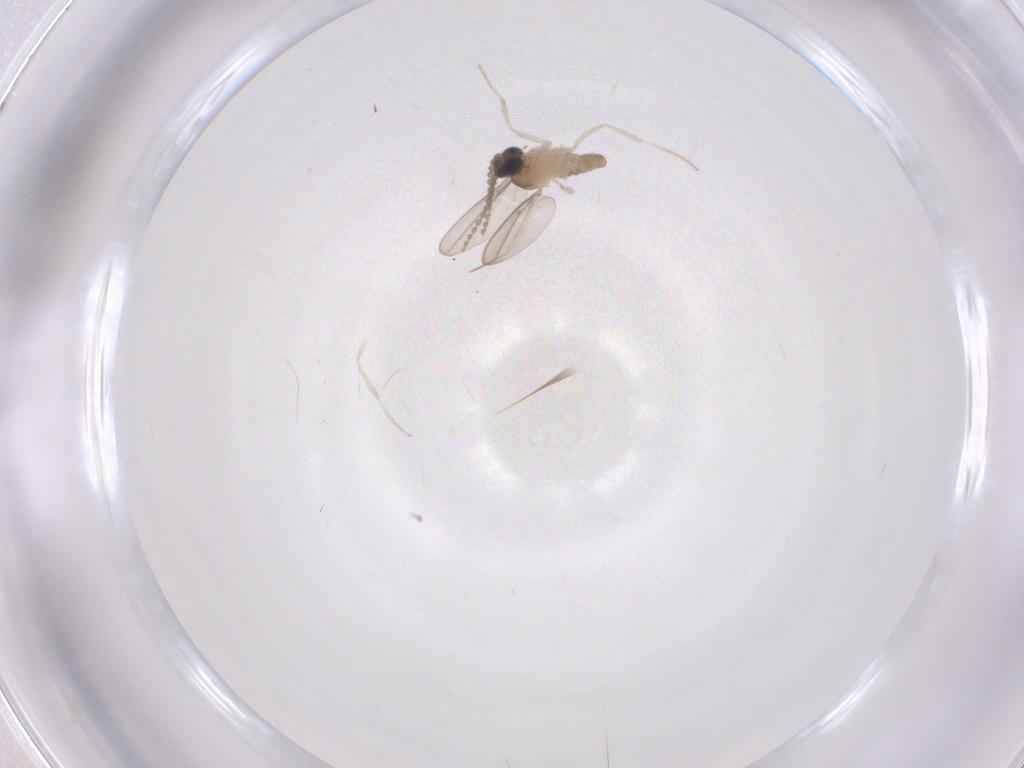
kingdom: Animalia
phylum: Arthropoda
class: Insecta
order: Diptera
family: Cecidomyiidae
